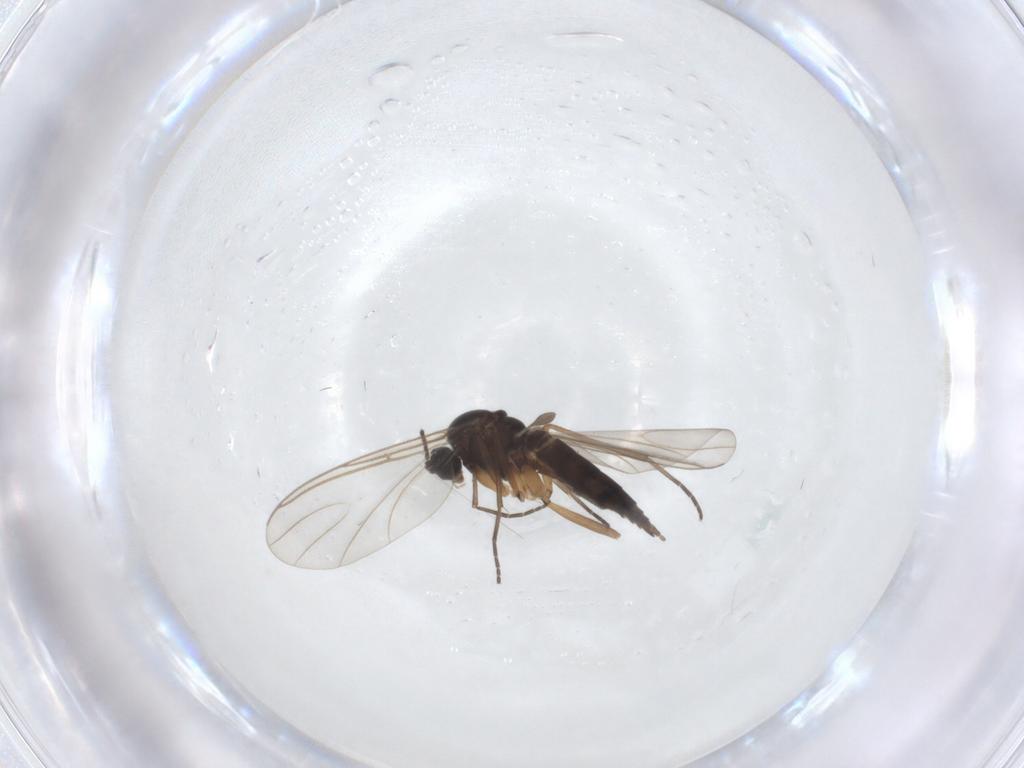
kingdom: Animalia
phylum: Arthropoda
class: Insecta
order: Diptera
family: Sciaridae
